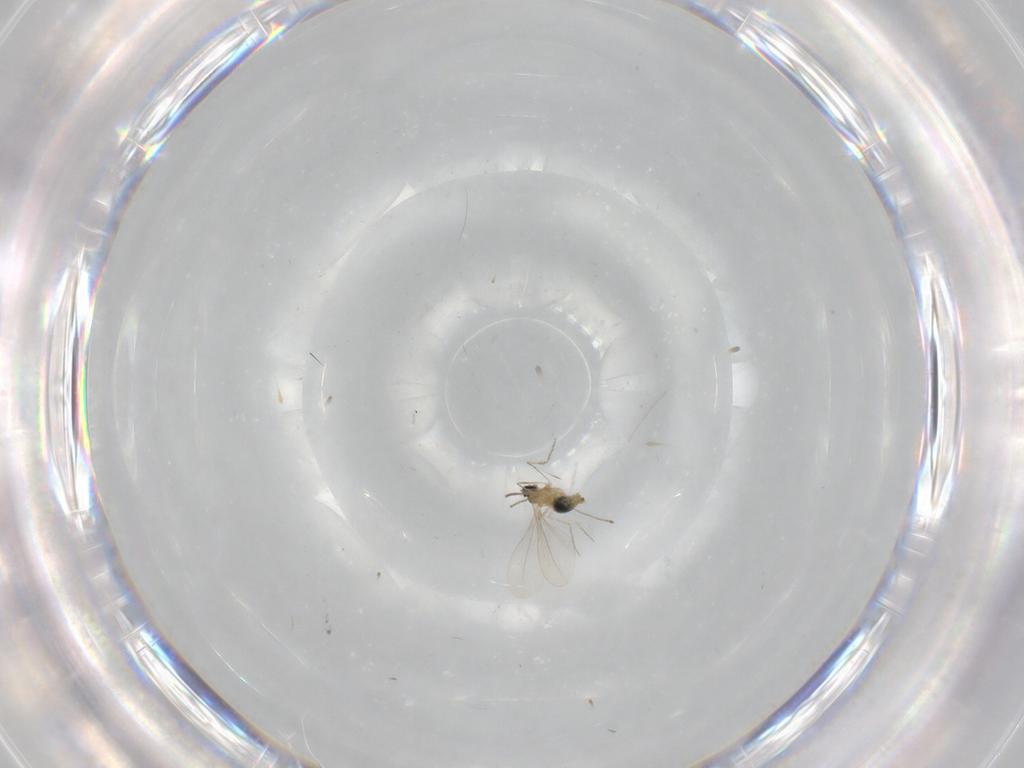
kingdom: Animalia
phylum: Arthropoda
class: Insecta
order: Diptera
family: Cecidomyiidae
